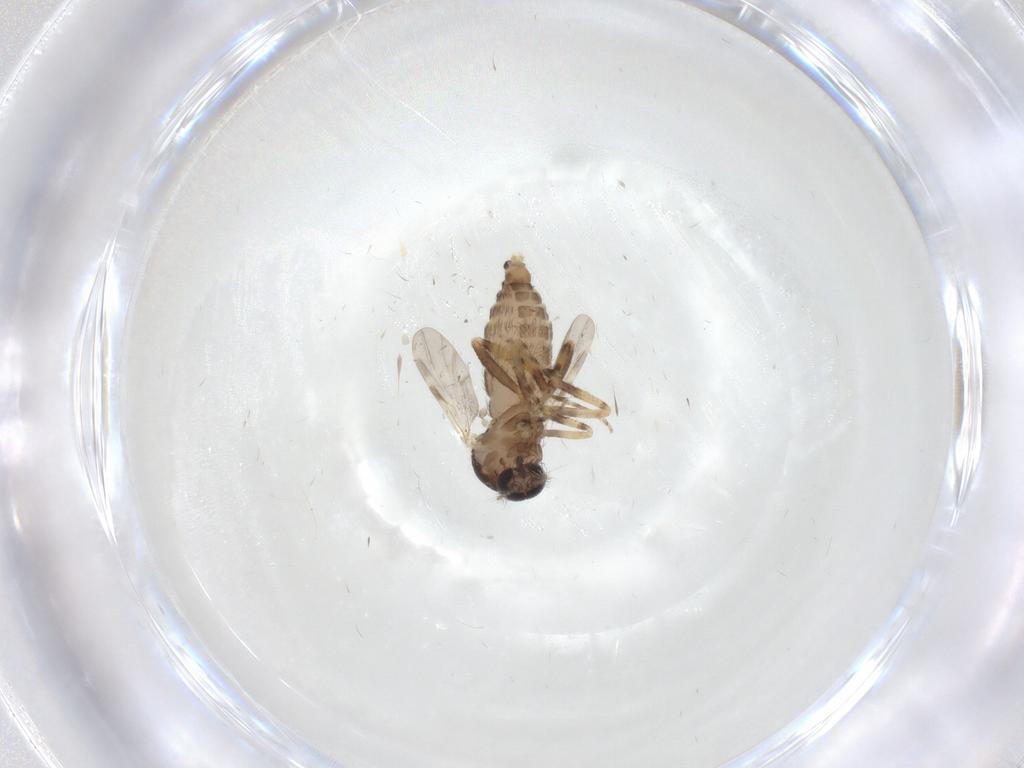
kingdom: Animalia
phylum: Arthropoda
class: Insecta
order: Diptera
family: Ceratopogonidae
